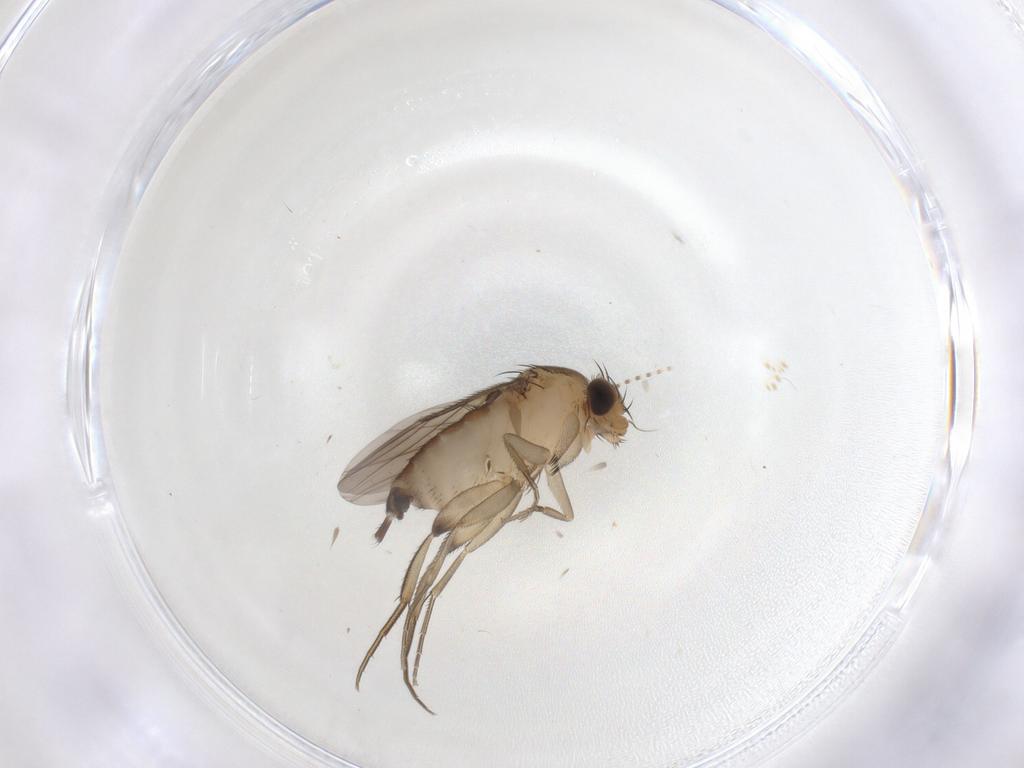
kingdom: Animalia
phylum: Arthropoda
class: Insecta
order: Diptera
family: Phoridae
